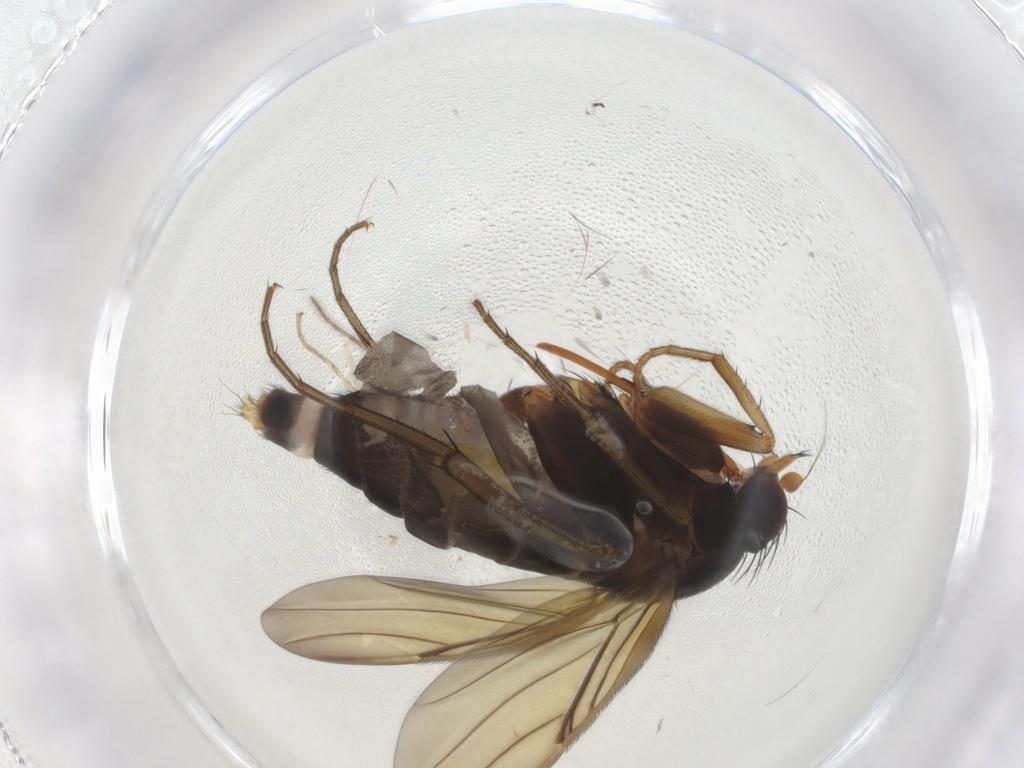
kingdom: Animalia
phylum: Arthropoda
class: Insecta
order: Diptera
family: Phoridae
